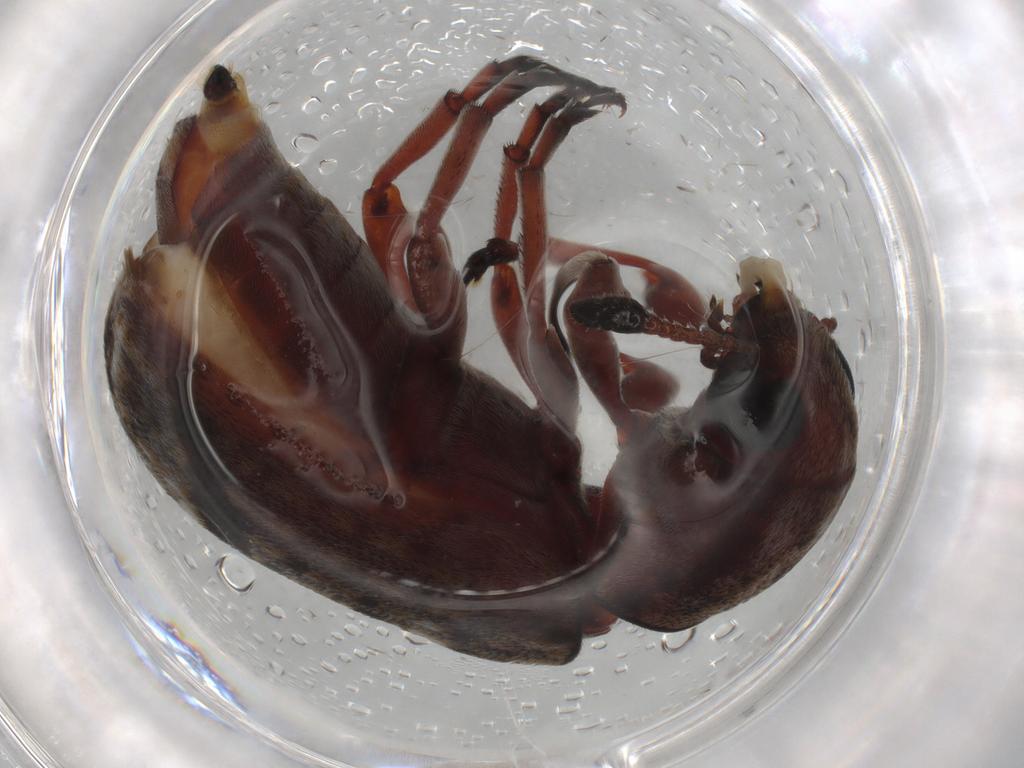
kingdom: Animalia
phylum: Arthropoda
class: Insecta
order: Coleoptera
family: Anthribidae
